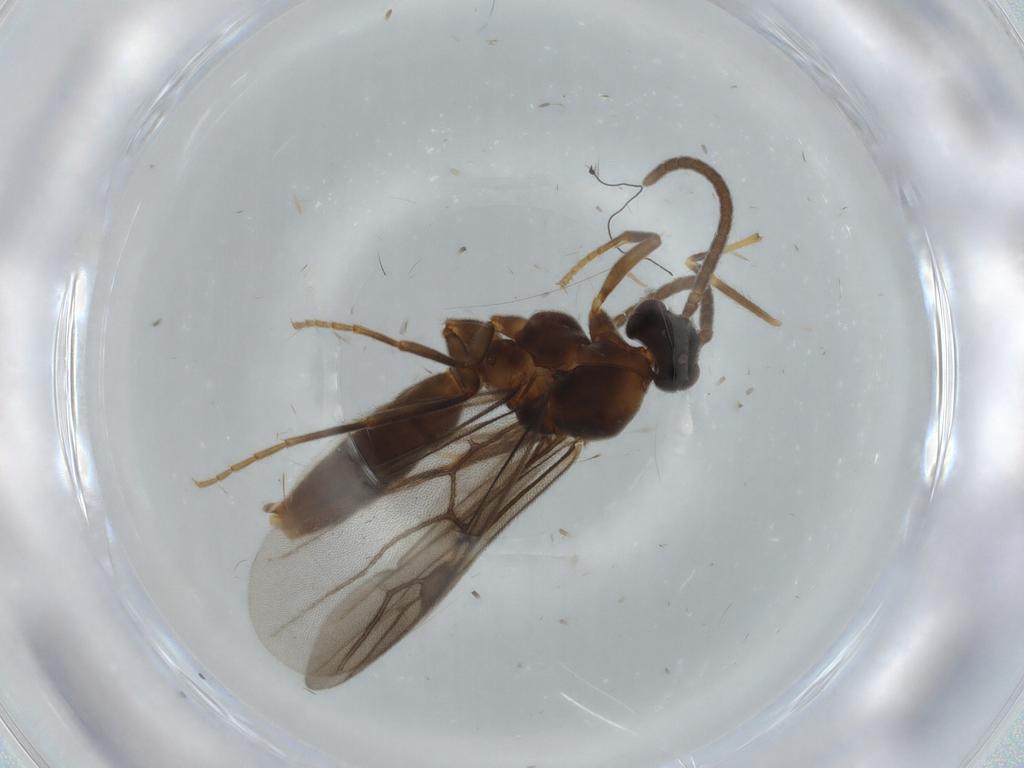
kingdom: Animalia
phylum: Arthropoda
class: Insecta
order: Hymenoptera
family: Formicidae
